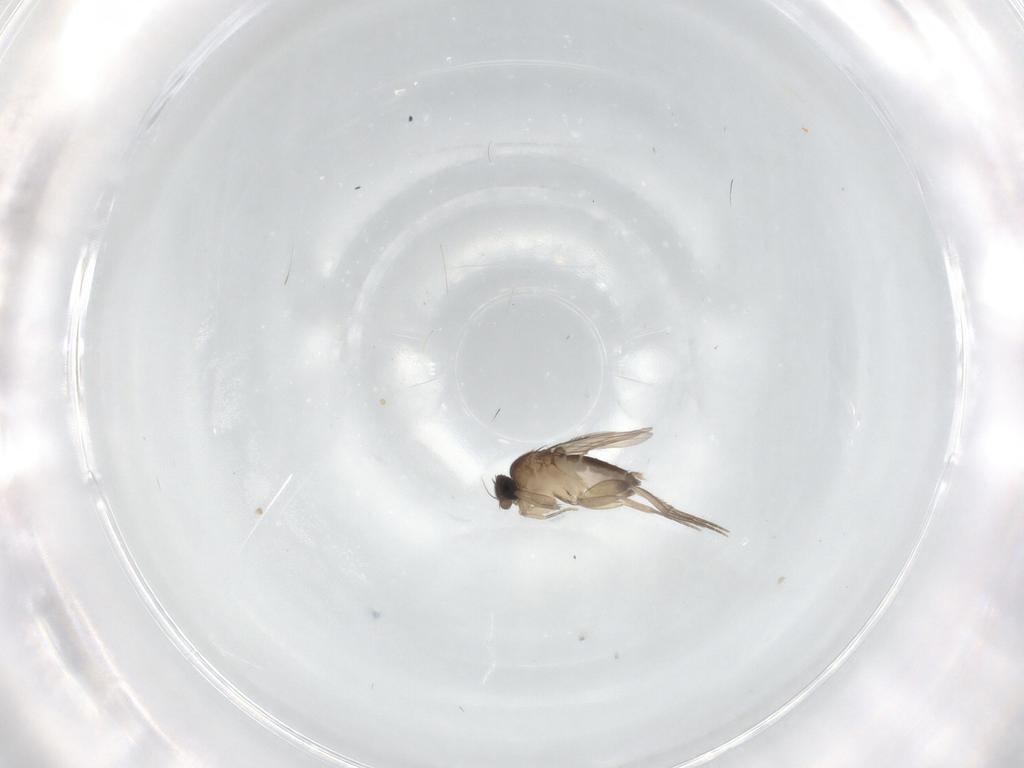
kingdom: Animalia
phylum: Arthropoda
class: Insecta
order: Diptera
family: Phoridae
